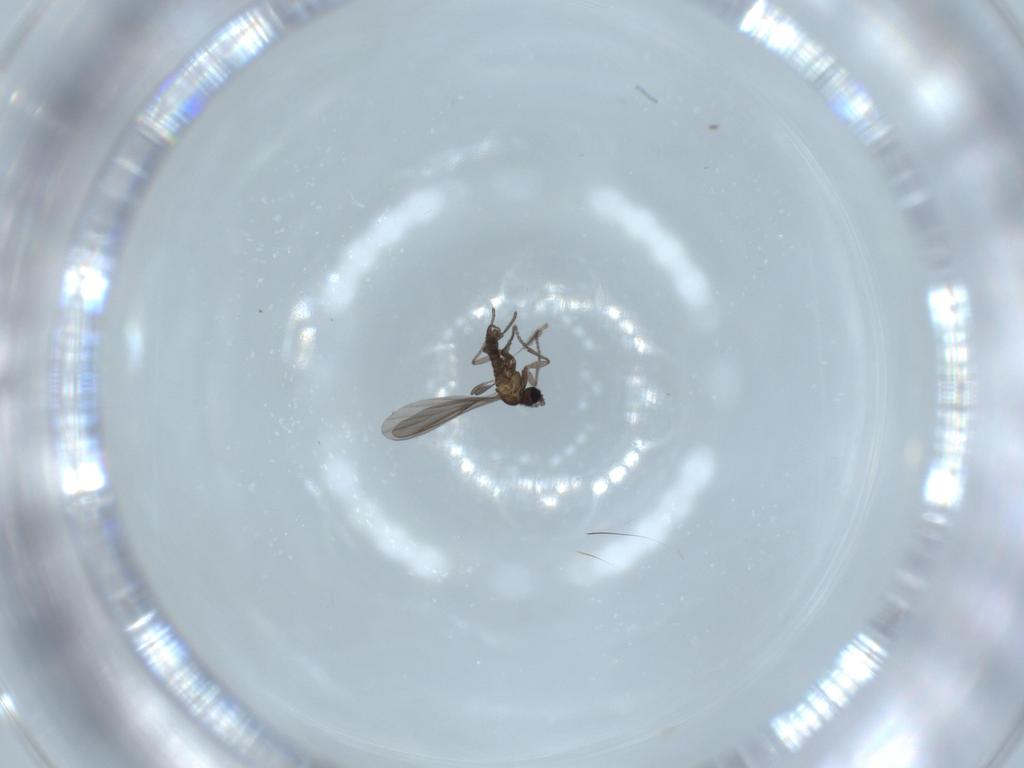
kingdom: Animalia
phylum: Arthropoda
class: Insecta
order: Diptera
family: Cecidomyiidae
